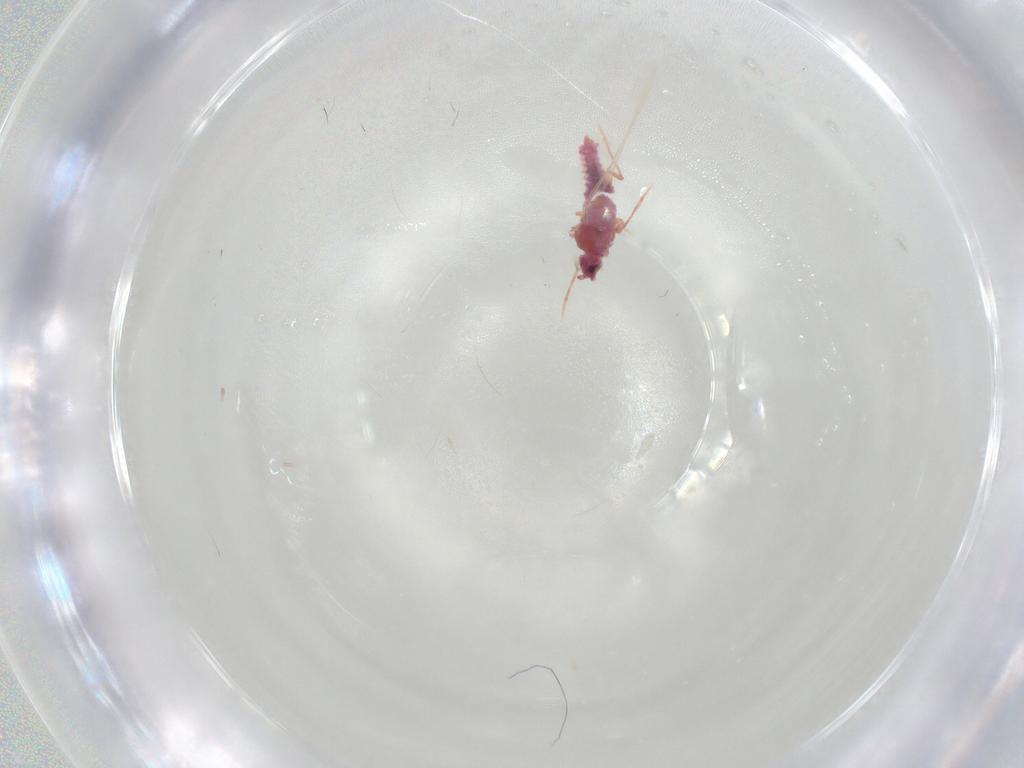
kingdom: Animalia
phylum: Arthropoda
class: Insecta
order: Hemiptera
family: Coccoidea_incertae_sedis
